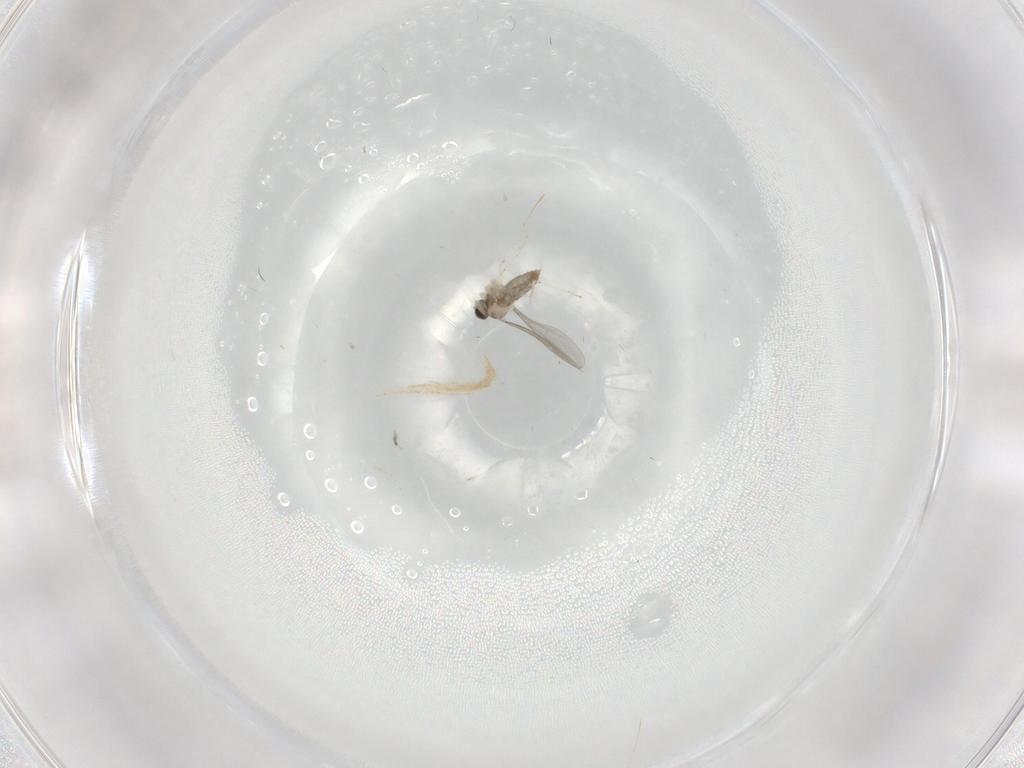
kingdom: Animalia
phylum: Arthropoda
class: Insecta
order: Diptera
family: Cecidomyiidae
